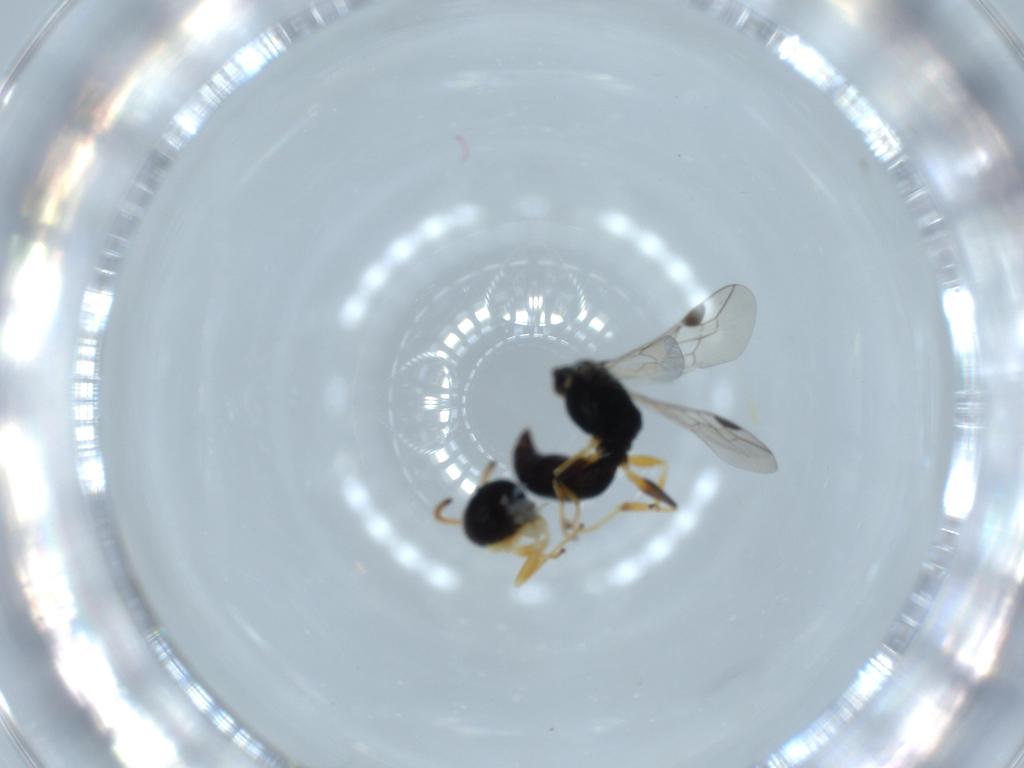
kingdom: Animalia
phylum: Arthropoda
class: Insecta
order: Hymenoptera
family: Pemphredonidae
